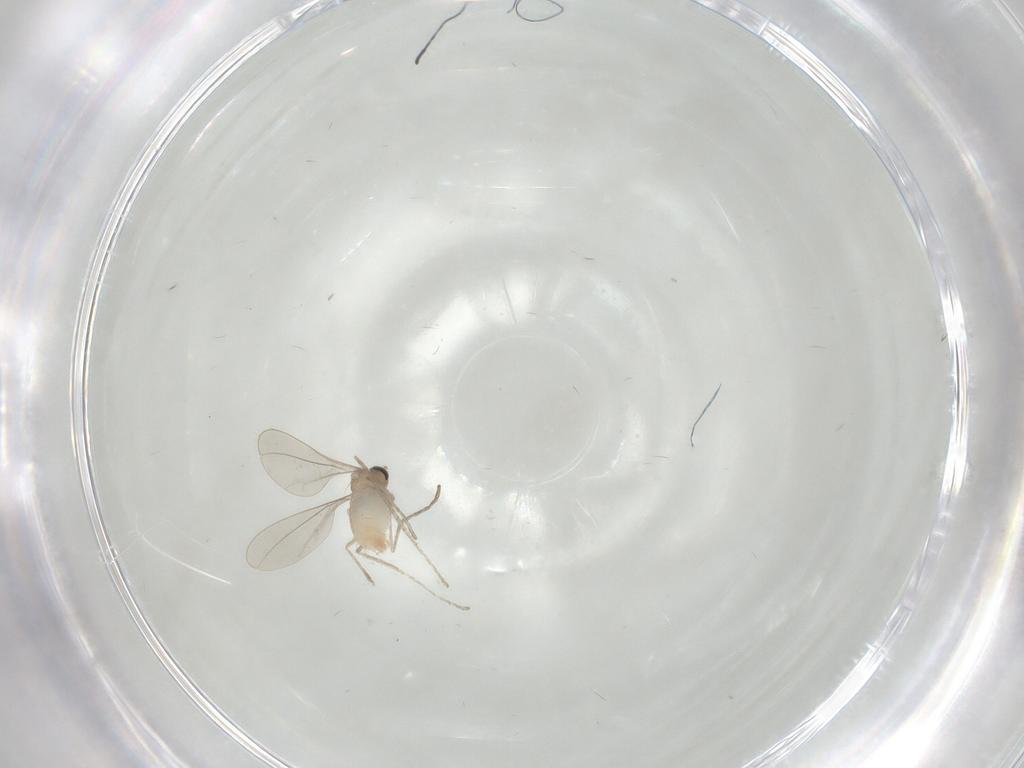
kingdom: Animalia
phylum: Arthropoda
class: Insecta
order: Diptera
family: Cecidomyiidae
